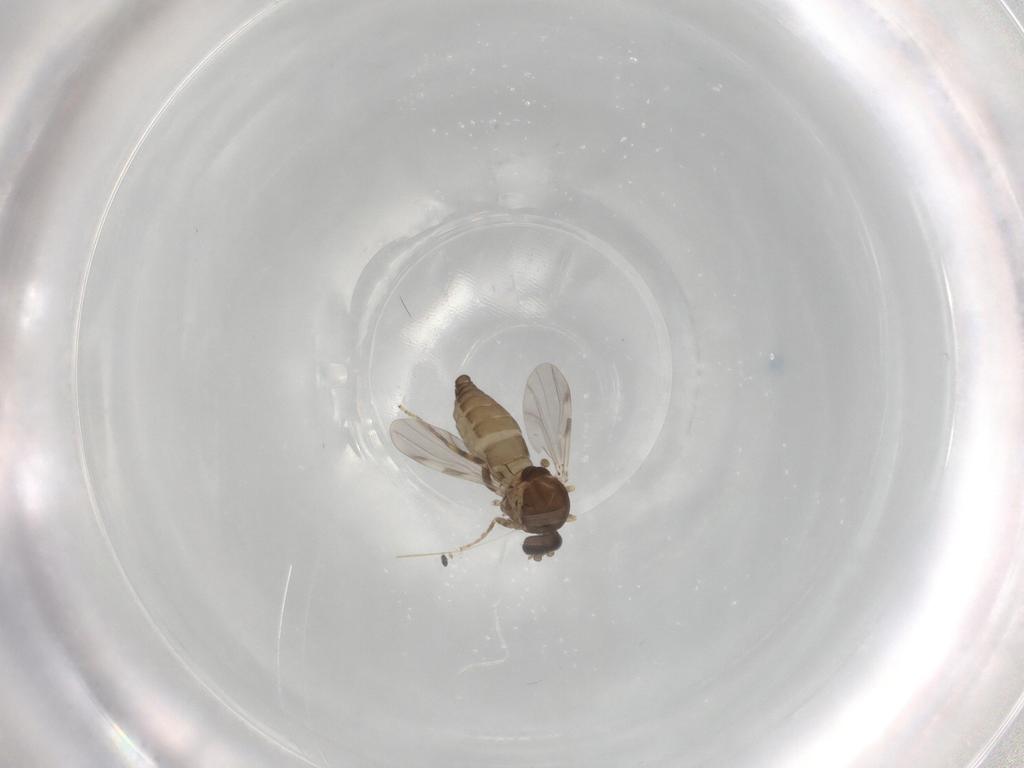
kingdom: Animalia
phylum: Arthropoda
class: Insecta
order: Diptera
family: Ceratopogonidae
